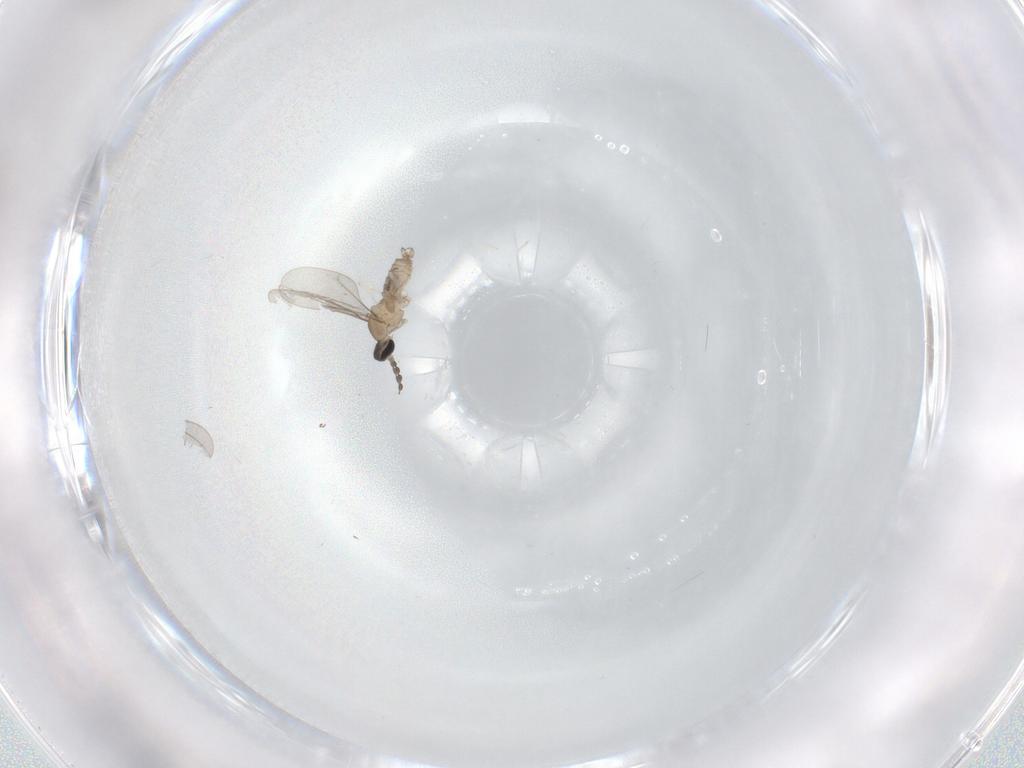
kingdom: Animalia
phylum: Arthropoda
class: Insecta
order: Diptera
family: Cecidomyiidae
